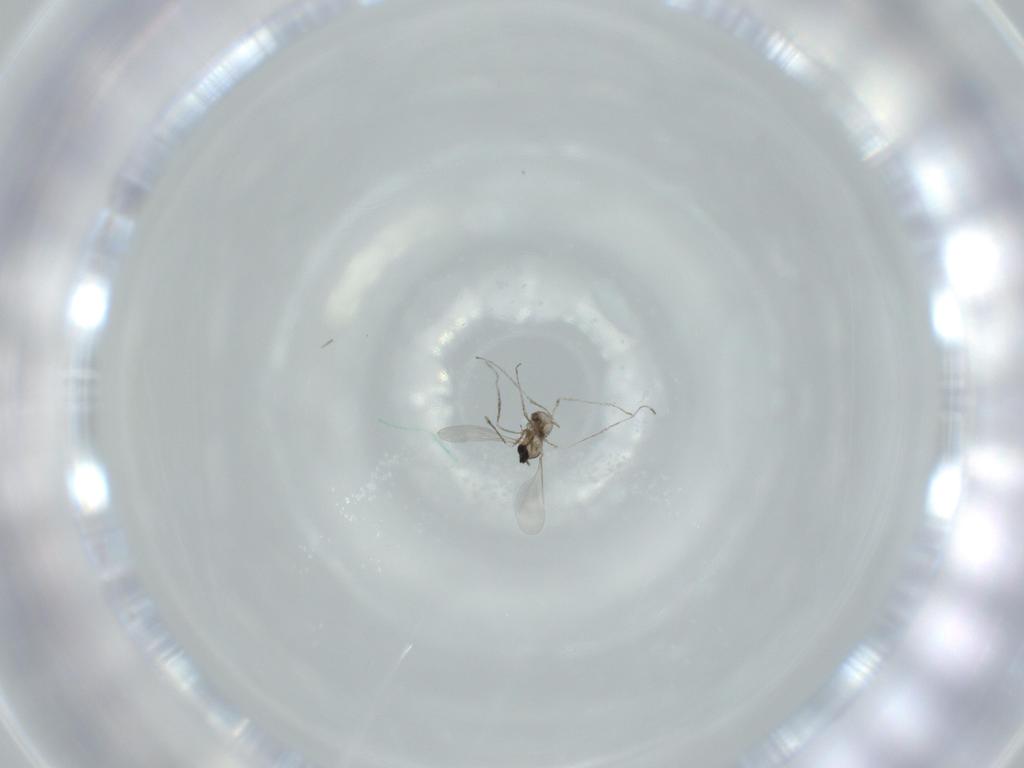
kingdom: Animalia
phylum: Arthropoda
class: Insecta
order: Diptera
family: Cecidomyiidae
